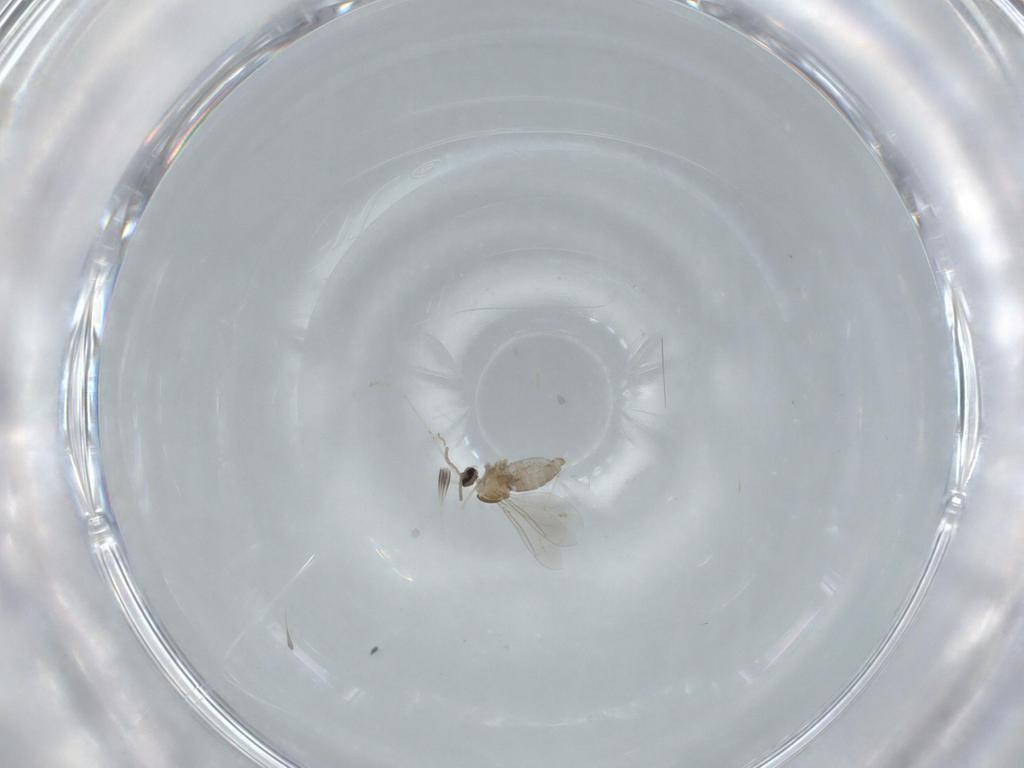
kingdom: Animalia
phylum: Arthropoda
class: Insecta
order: Diptera
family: Cecidomyiidae
